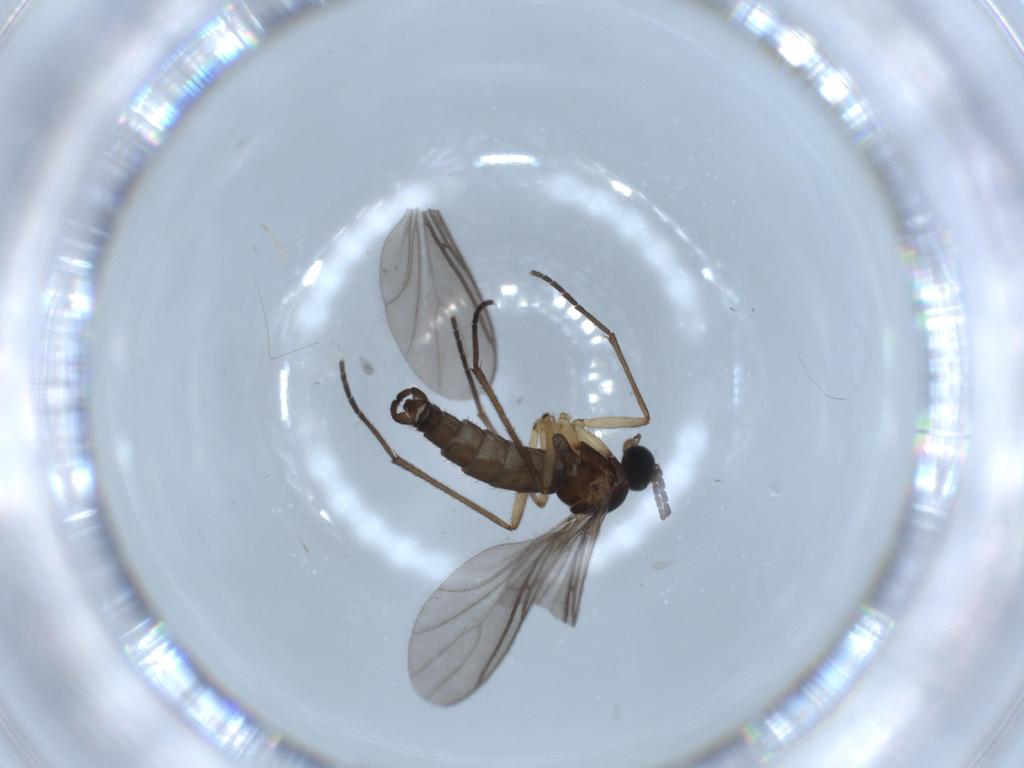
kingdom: Animalia
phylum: Arthropoda
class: Insecta
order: Diptera
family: Sciaridae
